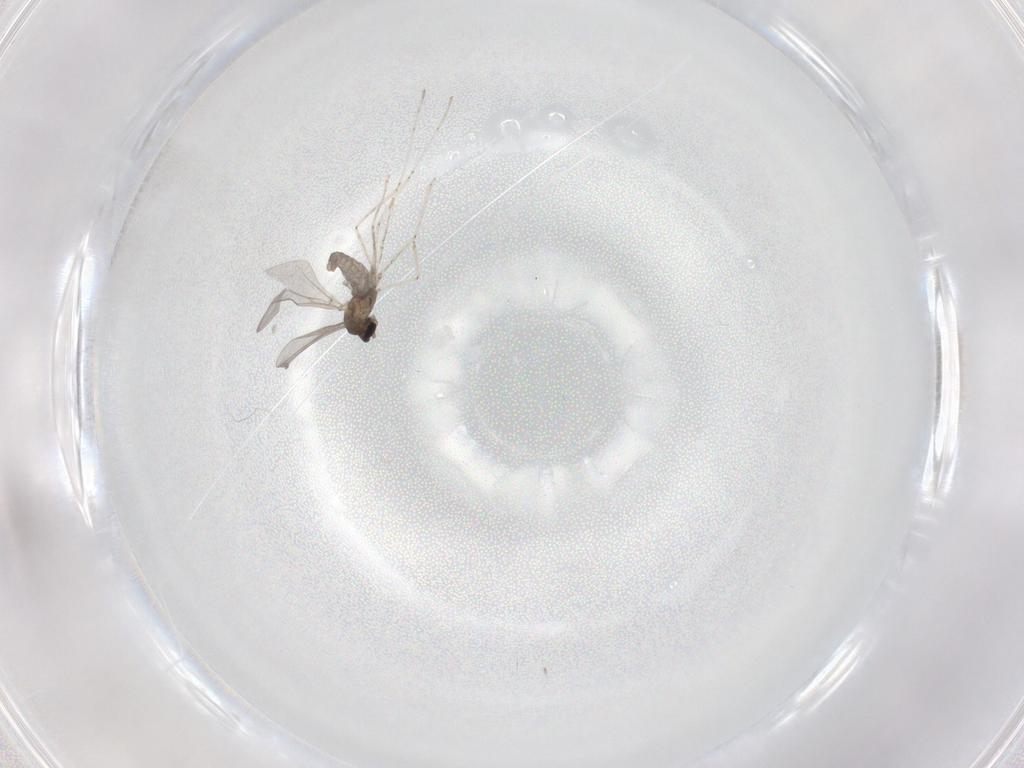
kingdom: Animalia
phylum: Arthropoda
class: Insecta
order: Diptera
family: Cecidomyiidae
